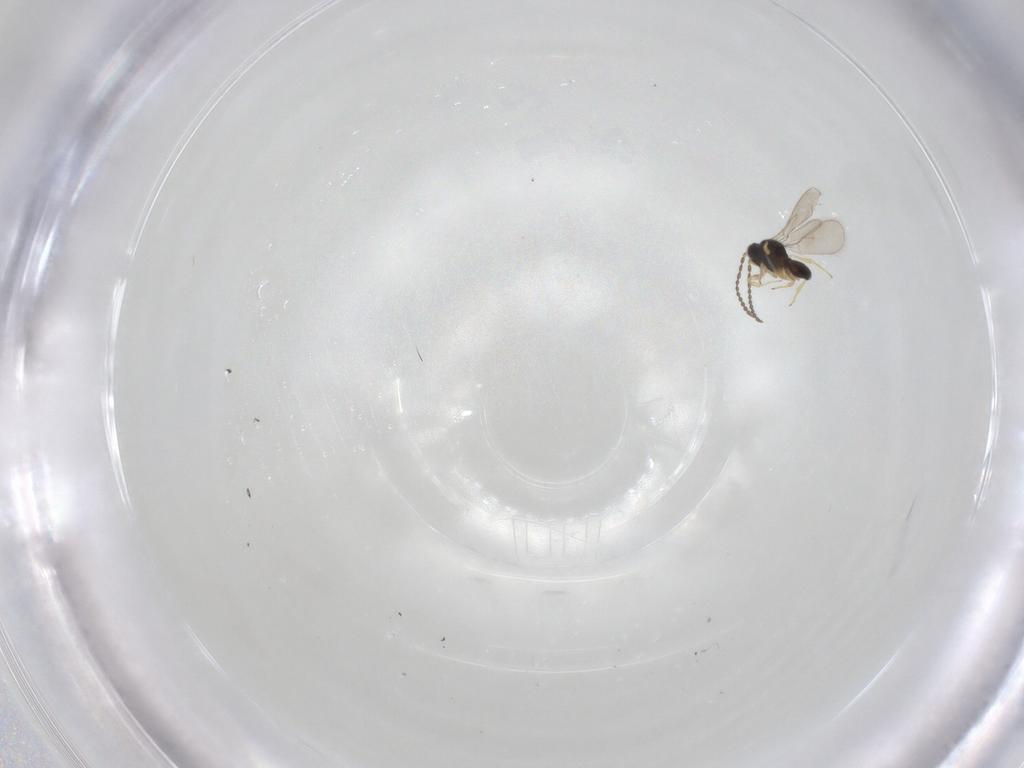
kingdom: Animalia
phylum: Arthropoda
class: Insecta
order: Hymenoptera
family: Scelionidae
